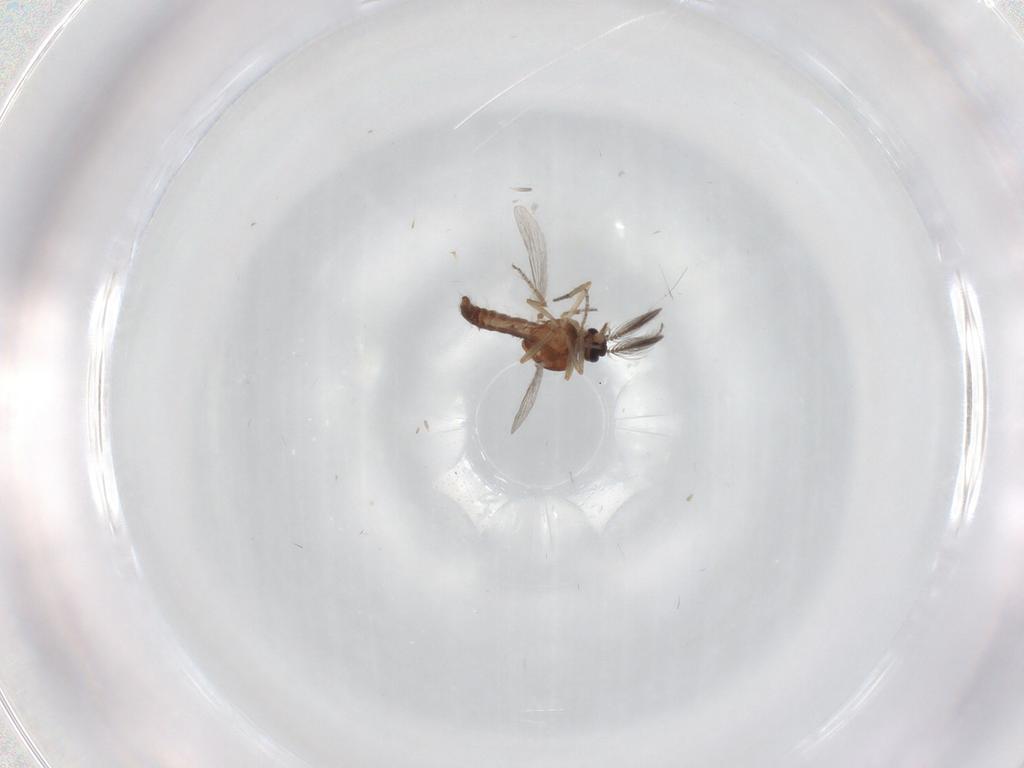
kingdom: Animalia
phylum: Arthropoda
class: Insecta
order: Diptera
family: Ceratopogonidae
